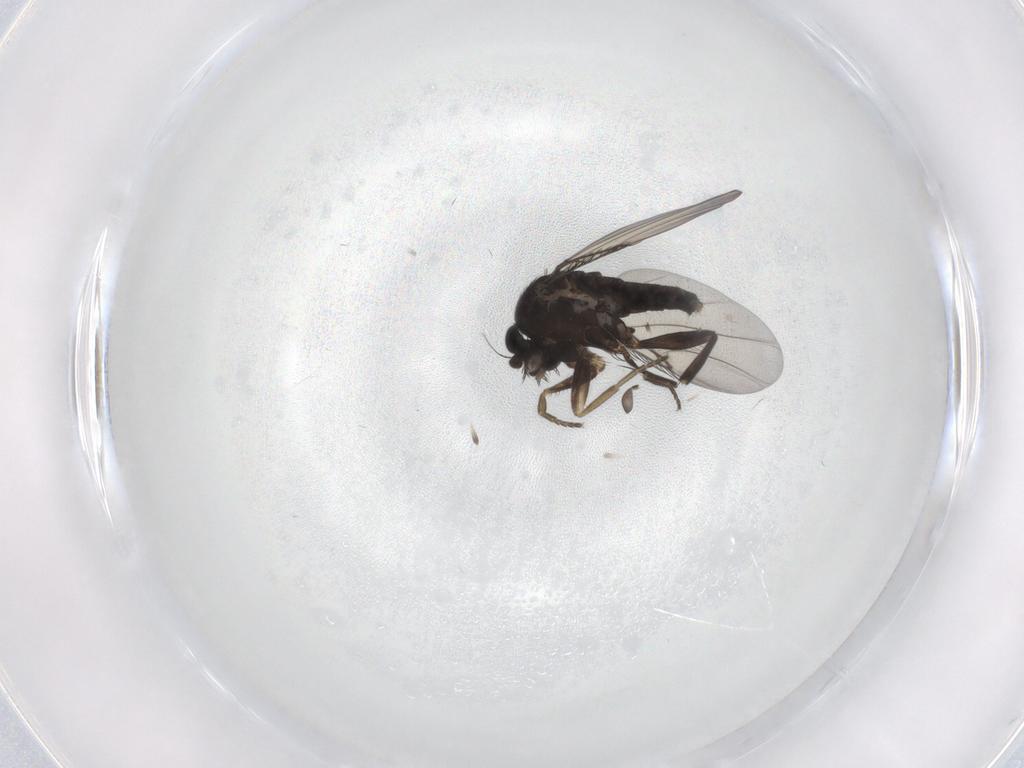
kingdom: Animalia
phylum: Arthropoda
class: Insecta
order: Diptera
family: Phoridae
